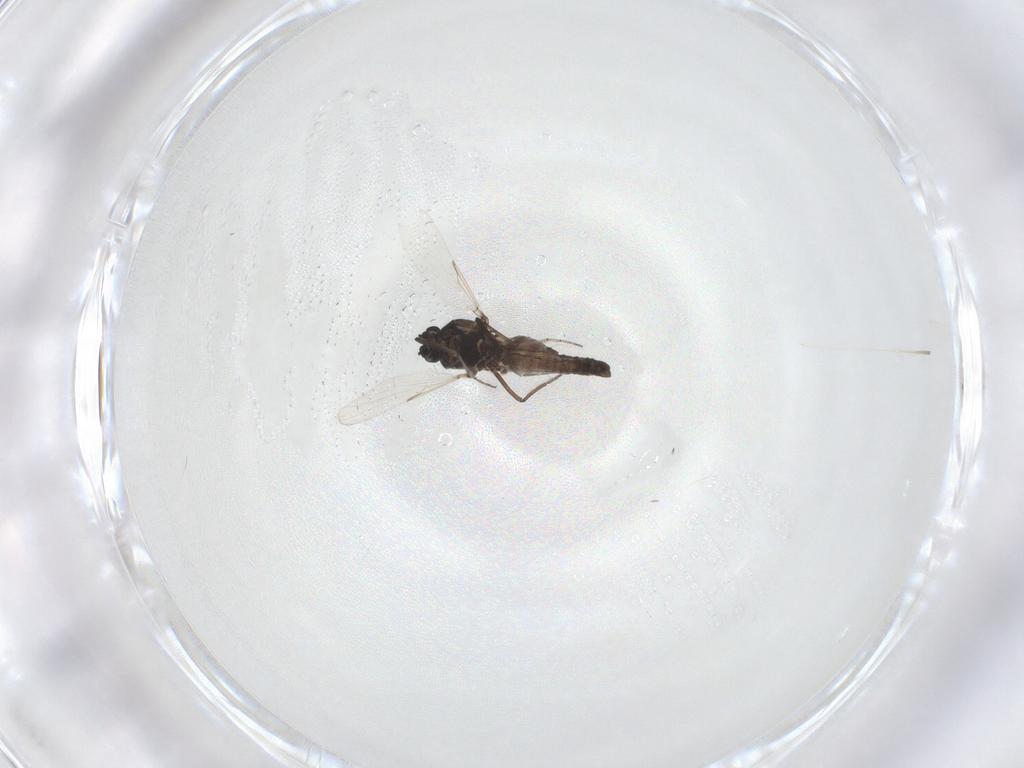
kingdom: Animalia
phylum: Arthropoda
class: Insecta
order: Diptera
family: Ceratopogonidae
